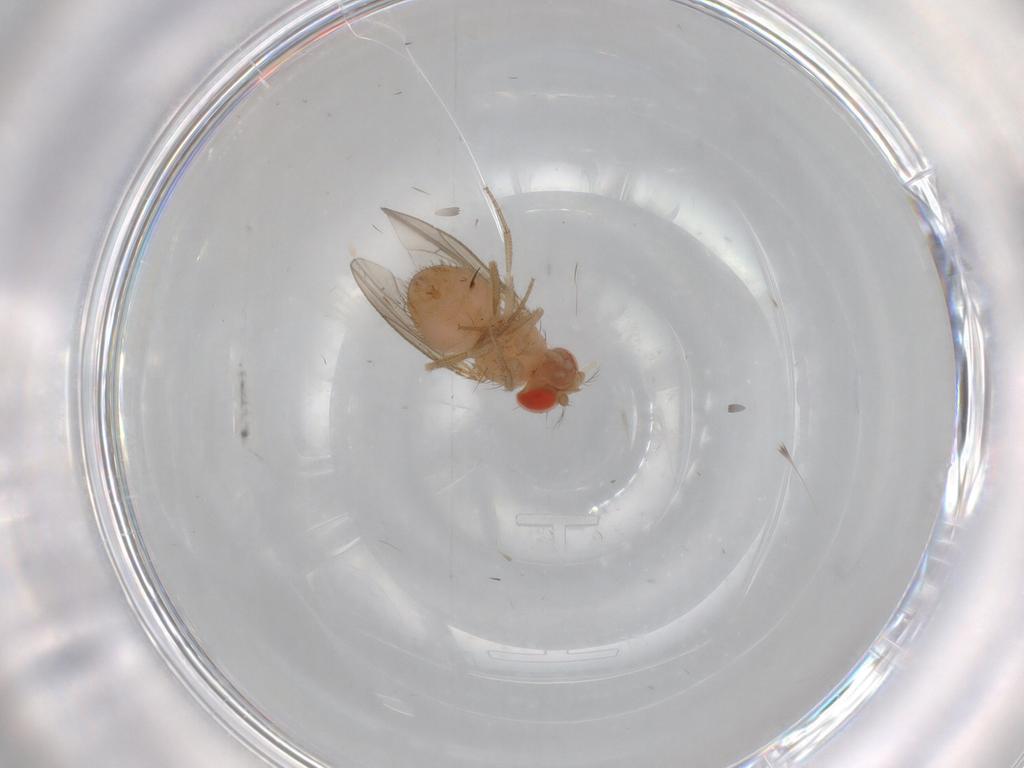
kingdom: Animalia
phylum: Arthropoda
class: Insecta
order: Diptera
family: Drosophilidae
